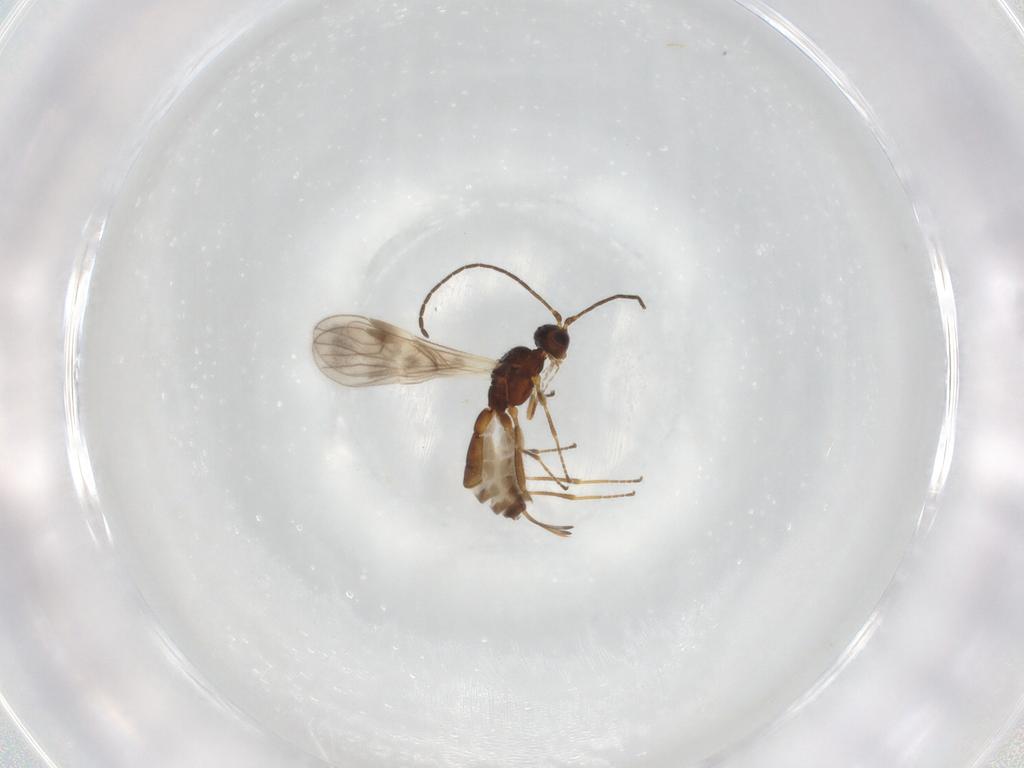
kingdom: Animalia
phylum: Arthropoda
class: Insecta
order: Hymenoptera
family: Braconidae
